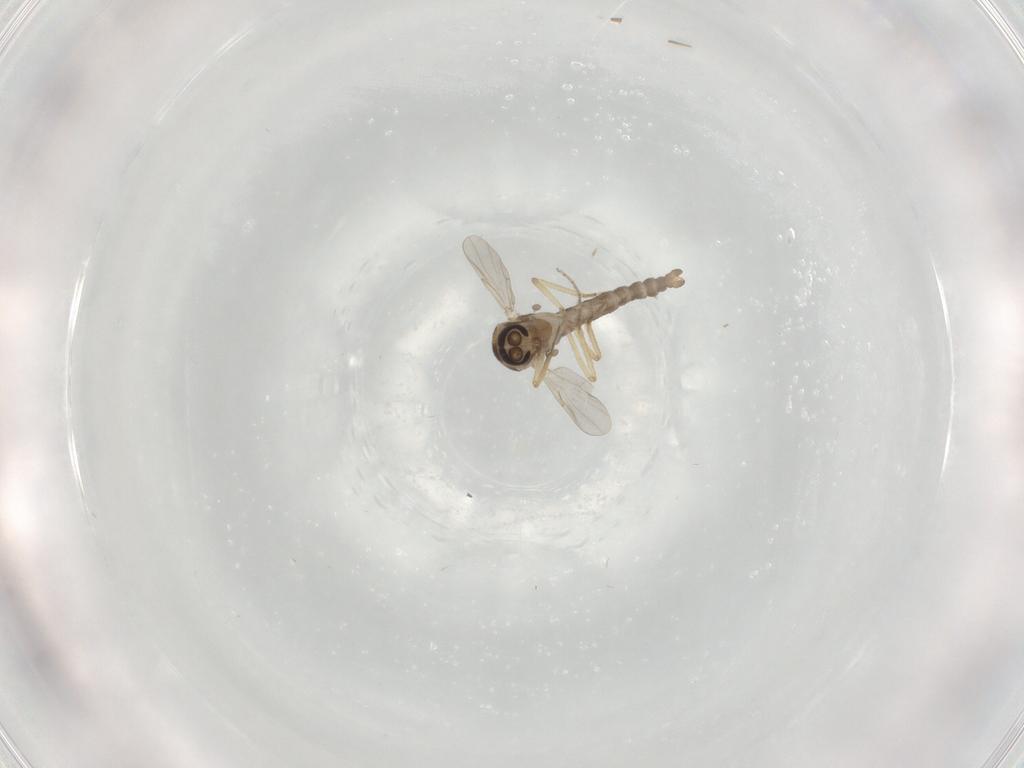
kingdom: Animalia
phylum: Arthropoda
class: Insecta
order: Diptera
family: Ceratopogonidae
